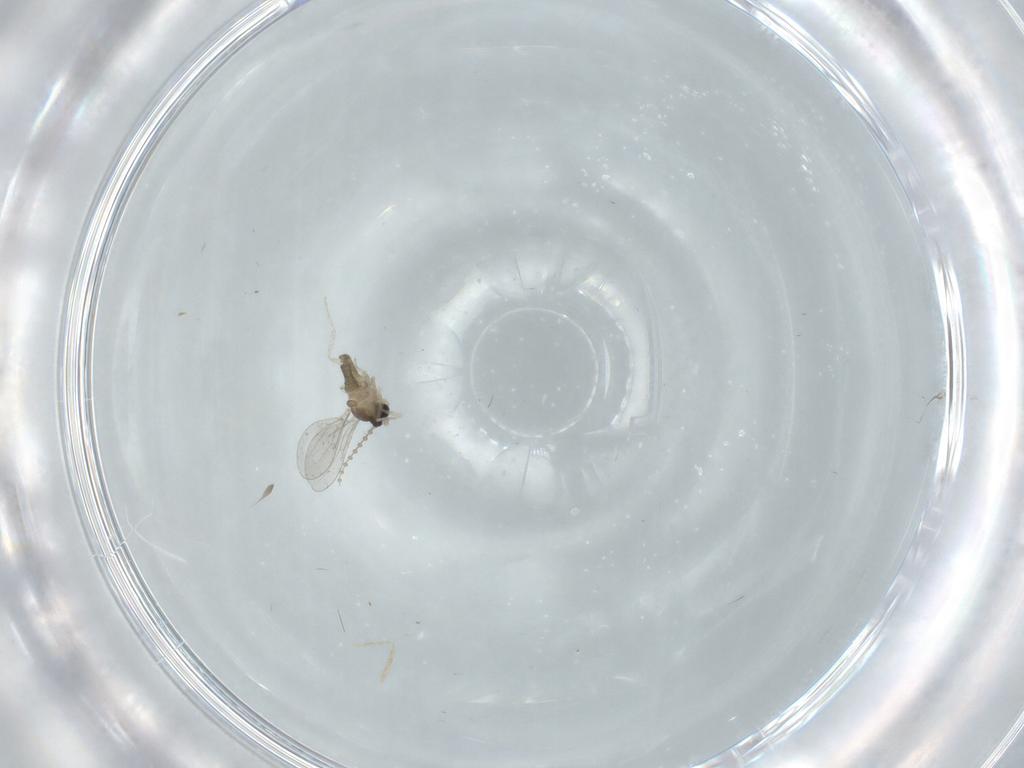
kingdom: Animalia
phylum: Arthropoda
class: Insecta
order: Diptera
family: Cecidomyiidae
